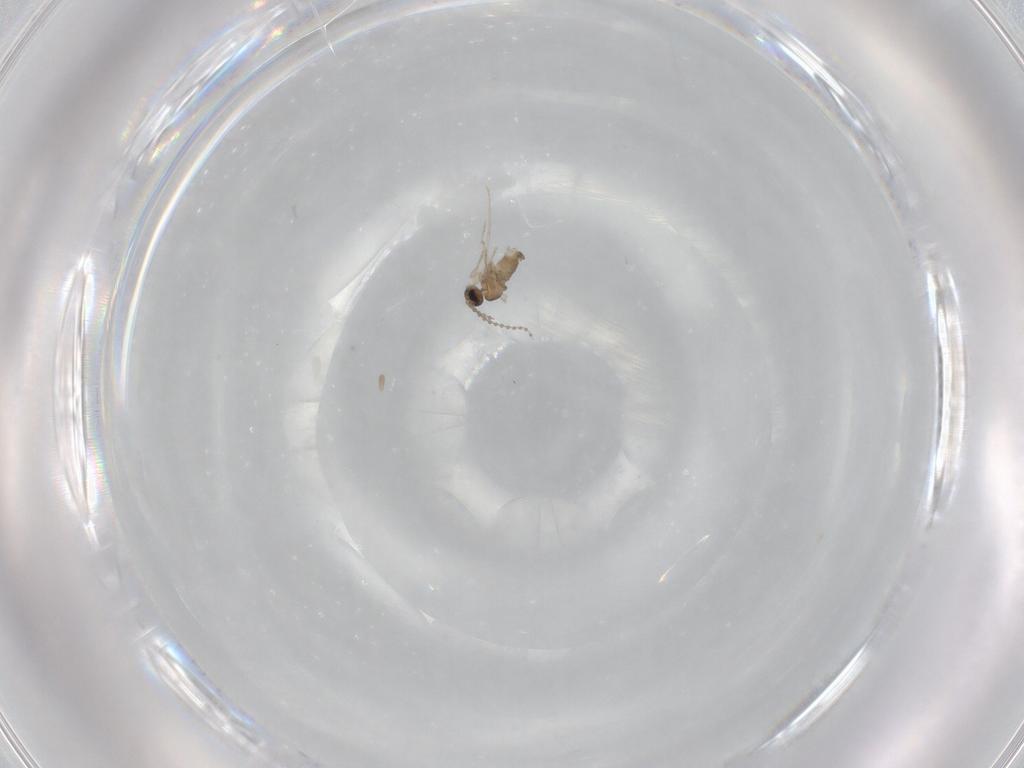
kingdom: Animalia
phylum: Arthropoda
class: Insecta
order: Diptera
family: Cecidomyiidae
